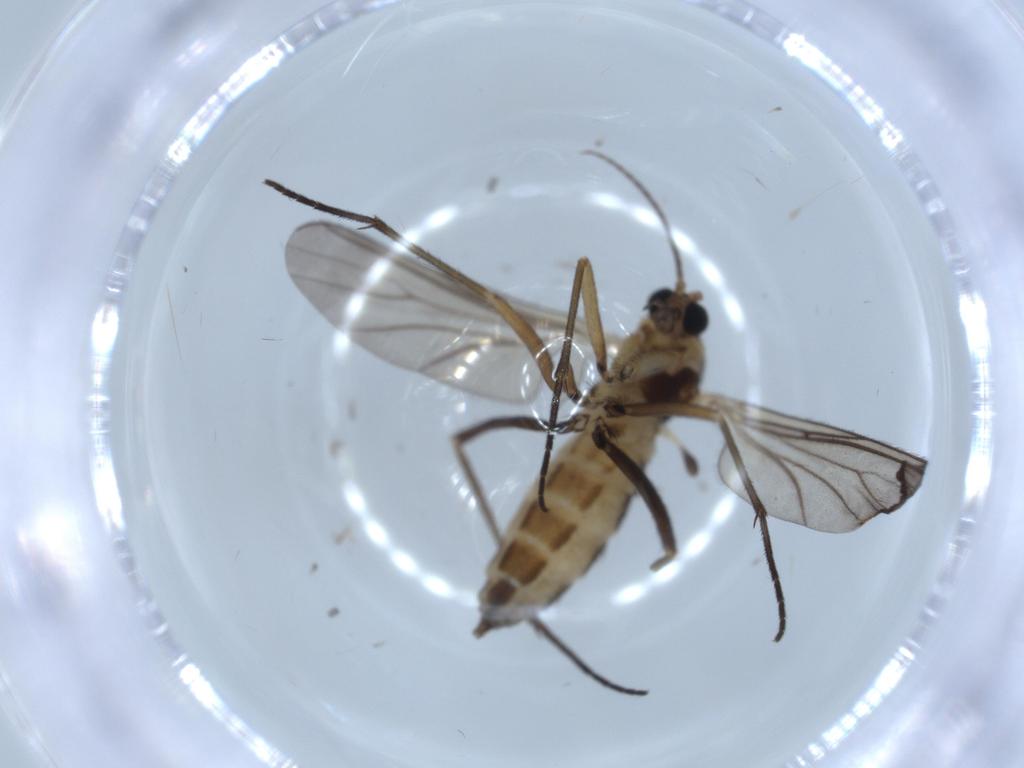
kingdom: Animalia
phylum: Arthropoda
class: Insecta
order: Diptera
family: Sciaridae
